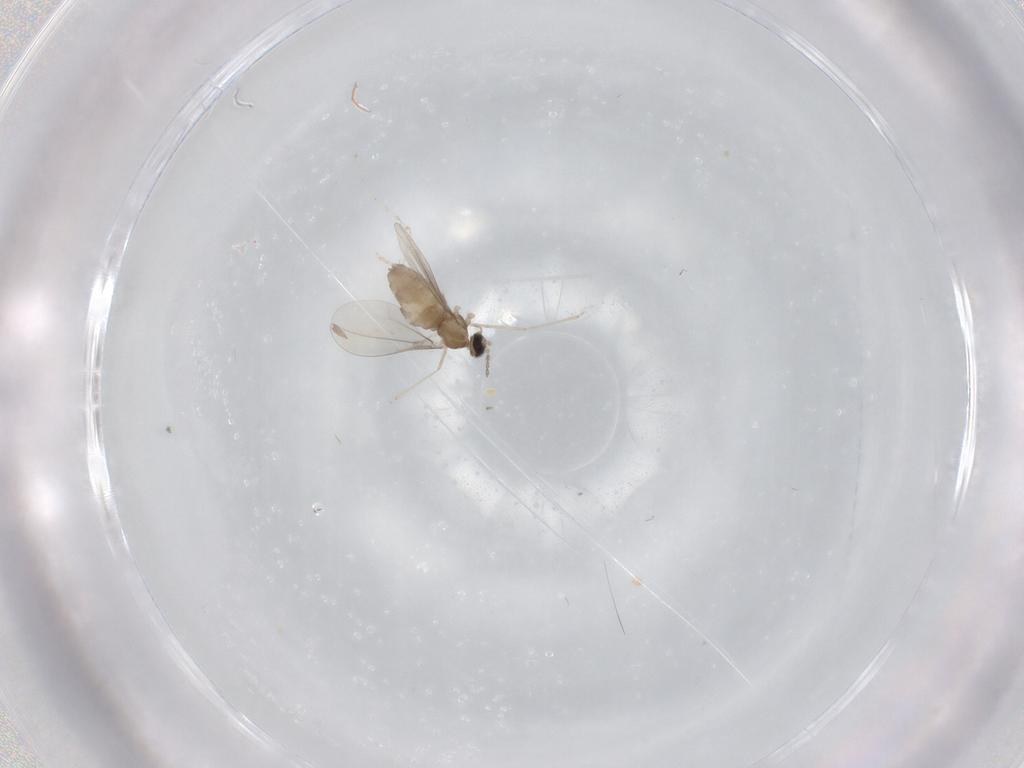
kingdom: Animalia
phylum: Arthropoda
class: Insecta
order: Diptera
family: Cecidomyiidae
